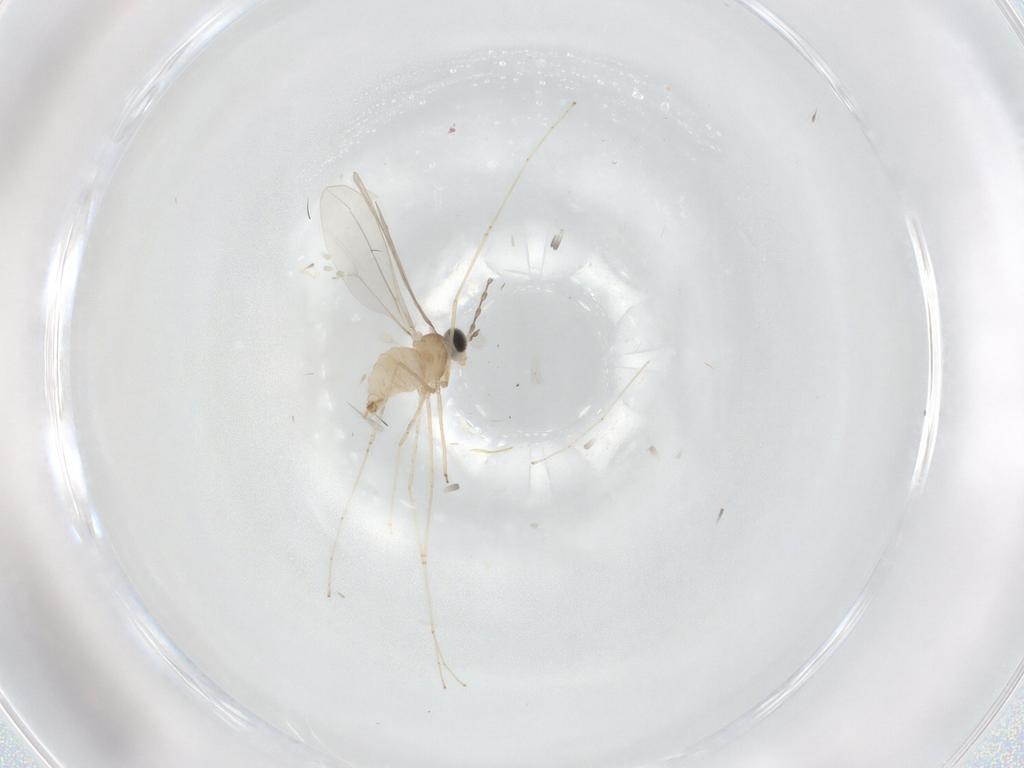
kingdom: Animalia
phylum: Arthropoda
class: Insecta
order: Diptera
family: Cecidomyiidae
